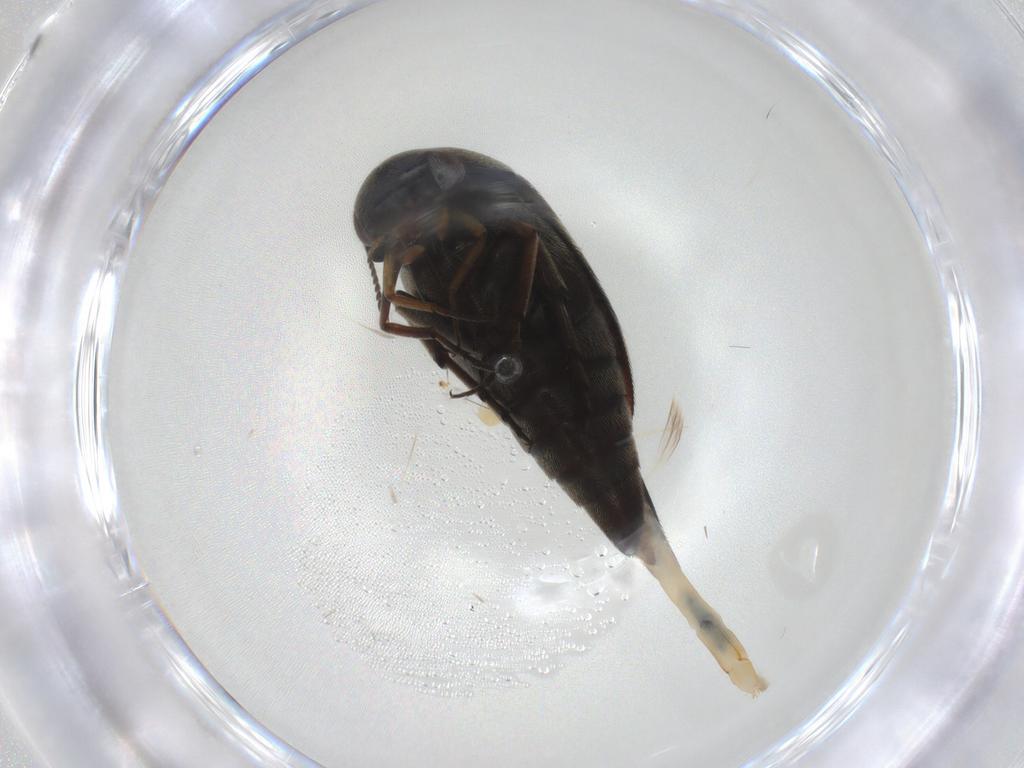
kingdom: Animalia
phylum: Arthropoda
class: Insecta
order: Coleoptera
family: Mordellidae
